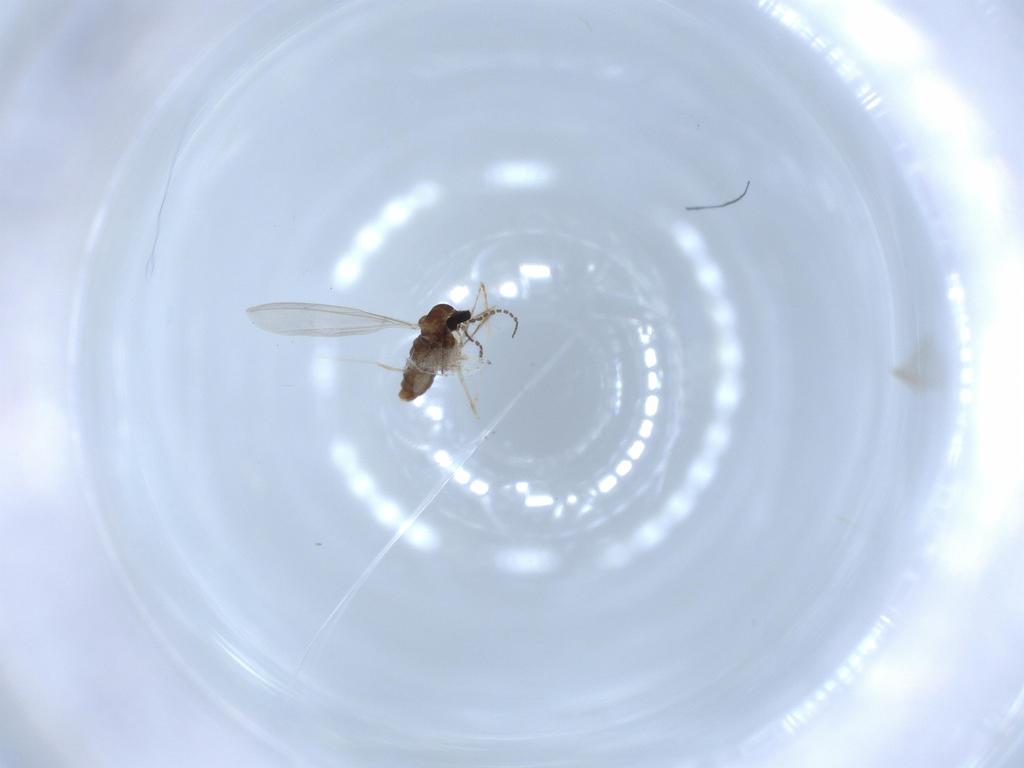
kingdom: Animalia
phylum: Arthropoda
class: Insecta
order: Diptera
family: Cecidomyiidae
